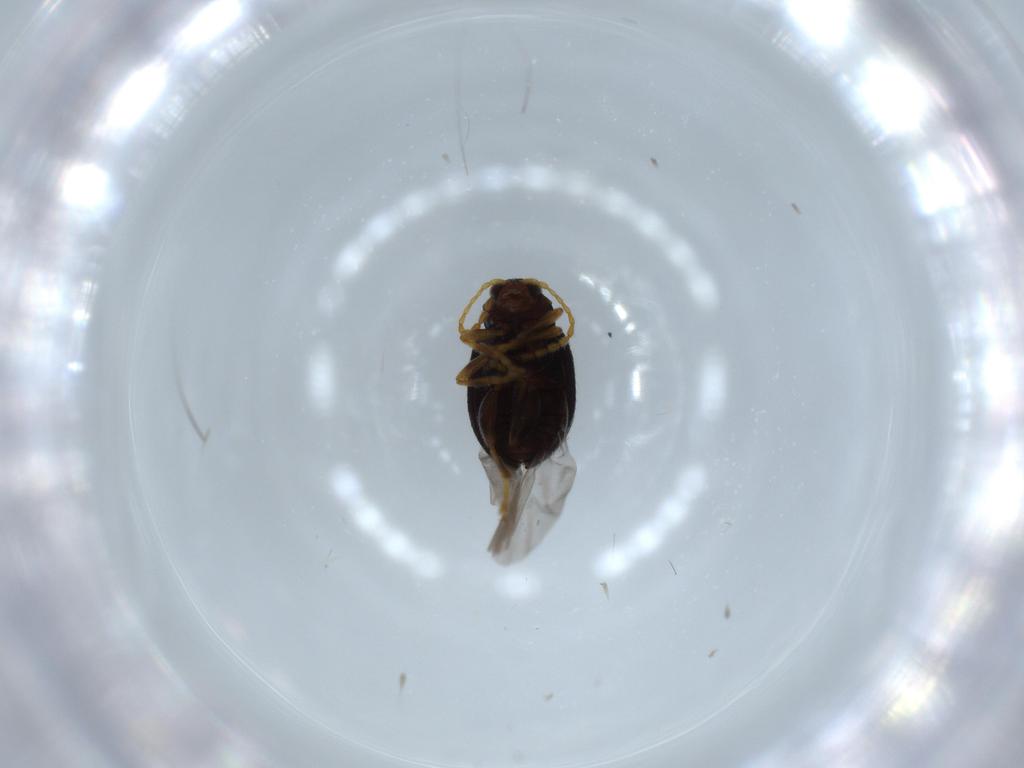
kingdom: Animalia
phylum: Arthropoda
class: Insecta
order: Coleoptera
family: Chrysomelidae
